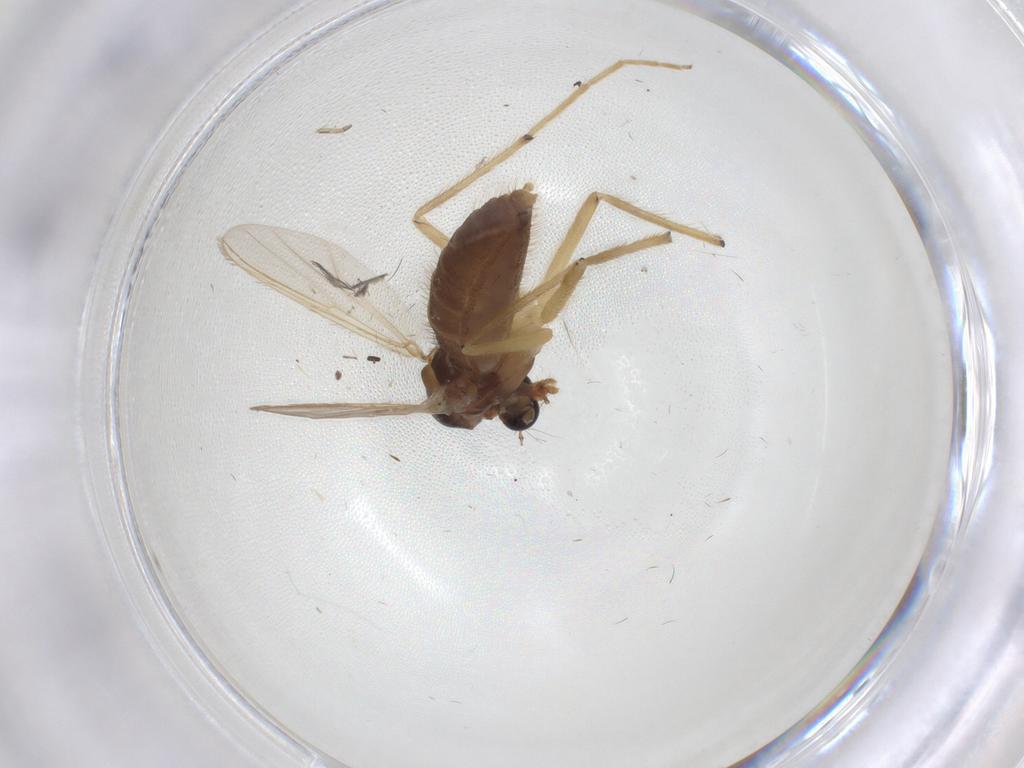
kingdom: Animalia
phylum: Arthropoda
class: Insecta
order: Diptera
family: Chironomidae
